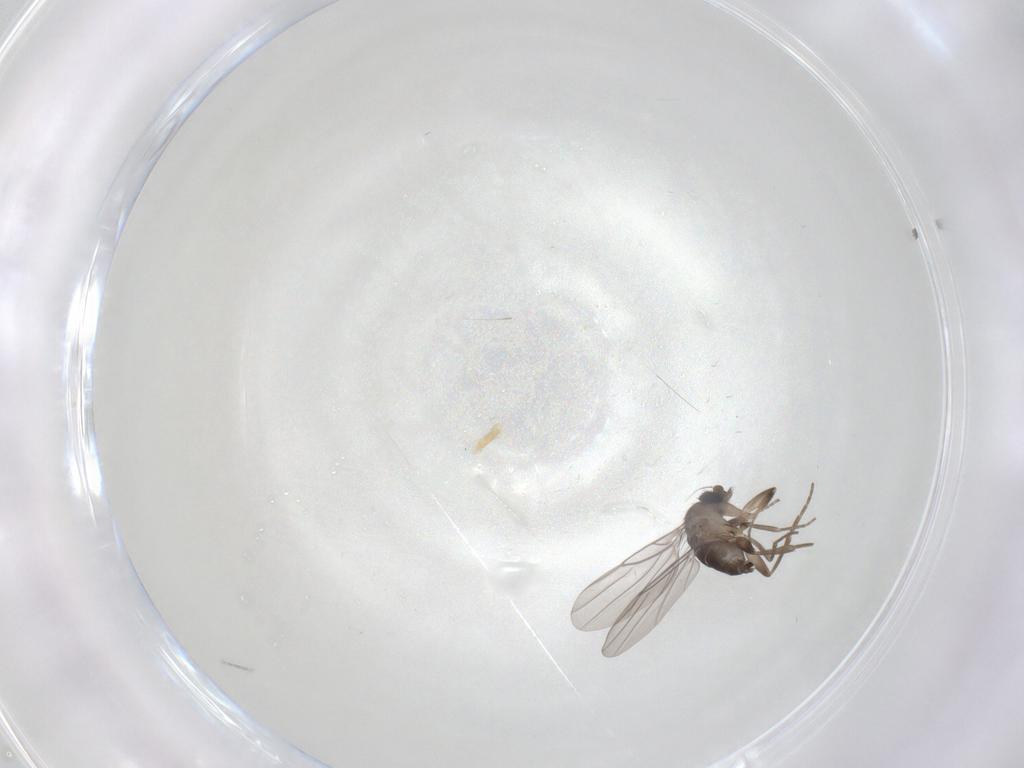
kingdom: Animalia
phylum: Arthropoda
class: Insecta
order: Diptera
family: Phoridae
